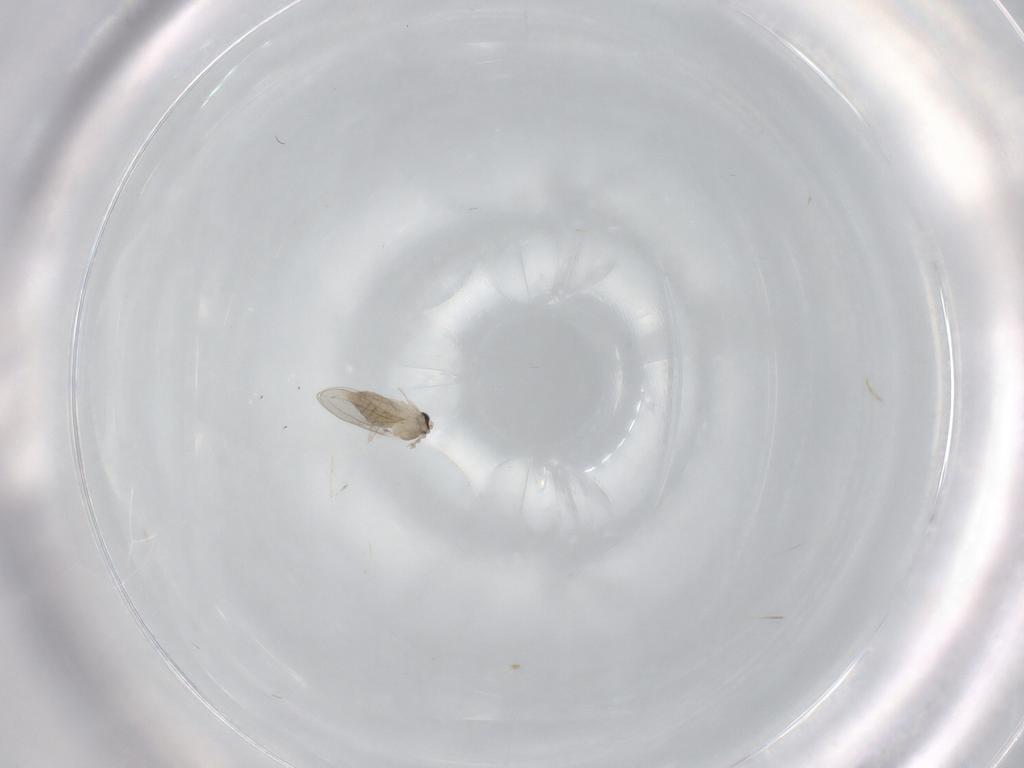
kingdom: Animalia
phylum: Arthropoda
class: Insecta
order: Diptera
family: Cecidomyiidae
